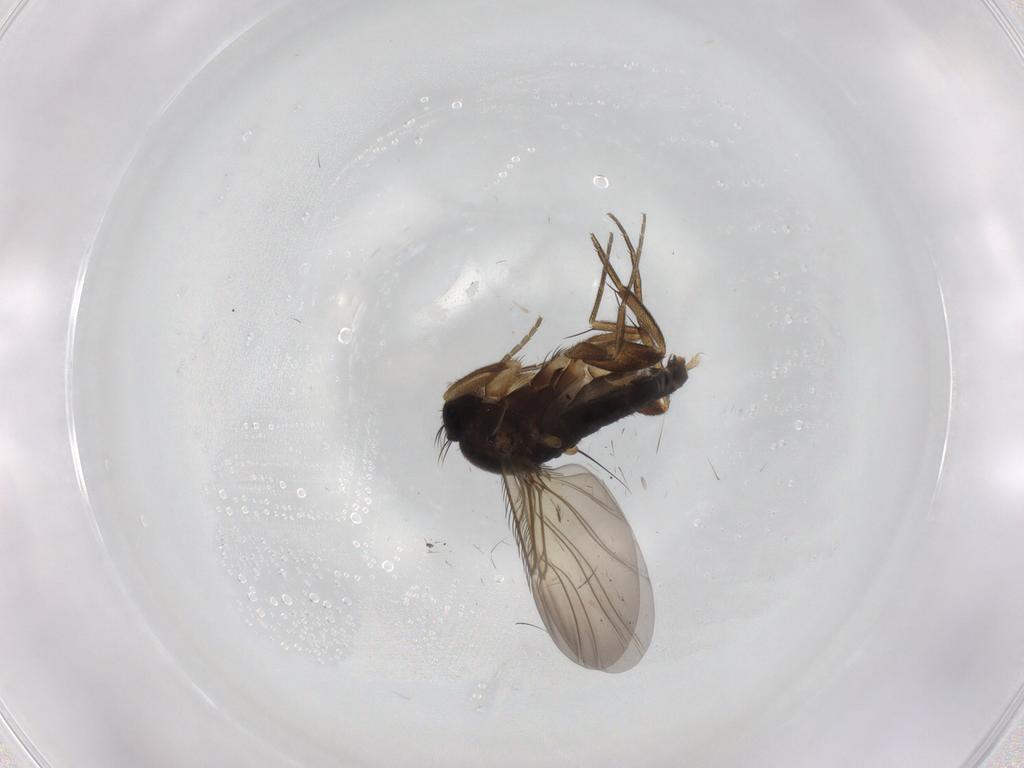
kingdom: Animalia
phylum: Arthropoda
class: Insecta
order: Diptera
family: Phoridae
